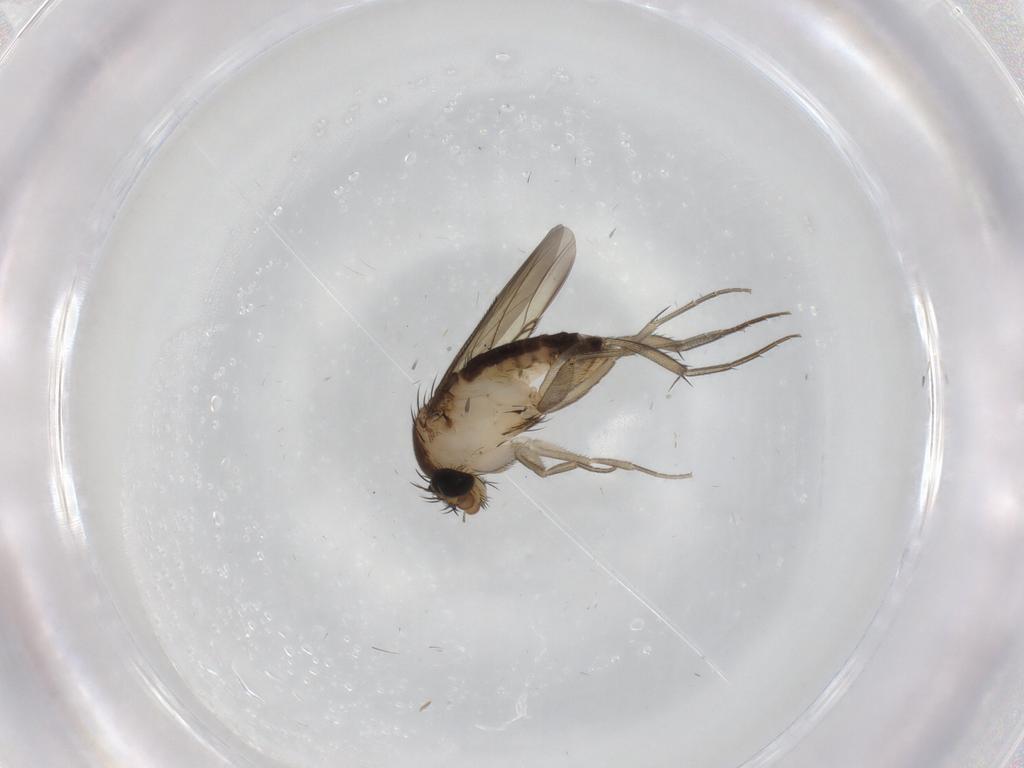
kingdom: Animalia
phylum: Arthropoda
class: Insecta
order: Diptera
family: Phoridae
